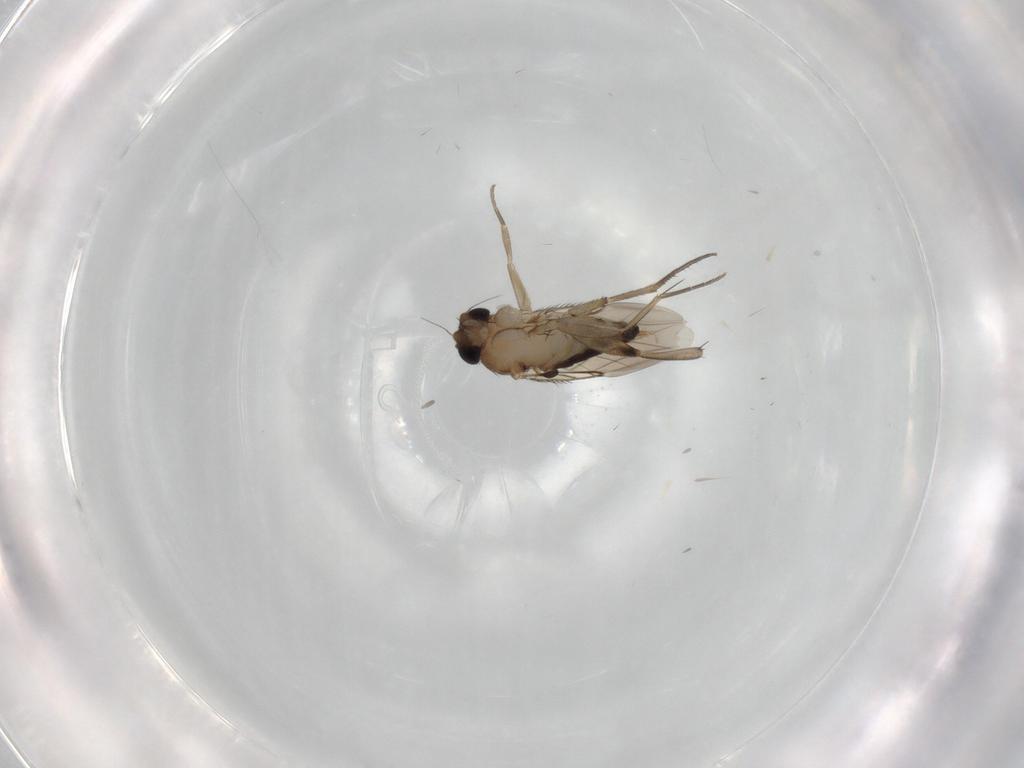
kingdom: Animalia
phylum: Arthropoda
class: Insecta
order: Diptera
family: Phoridae
